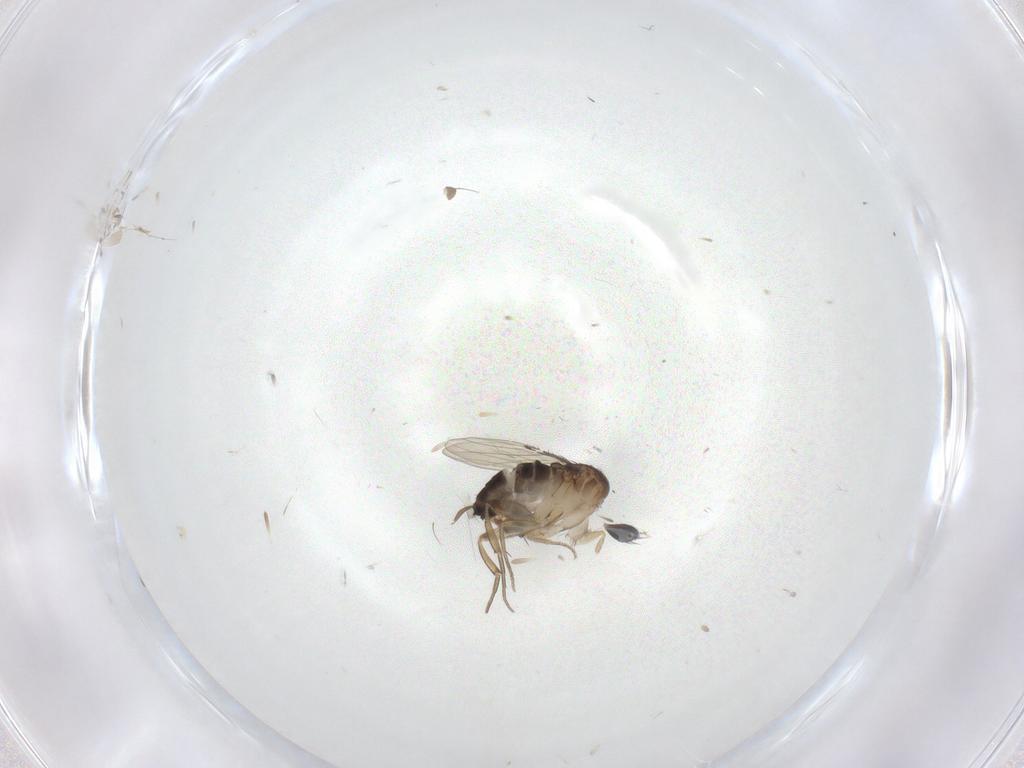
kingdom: Animalia
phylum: Arthropoda
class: Insecta
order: Diptera
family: Chironomidae
